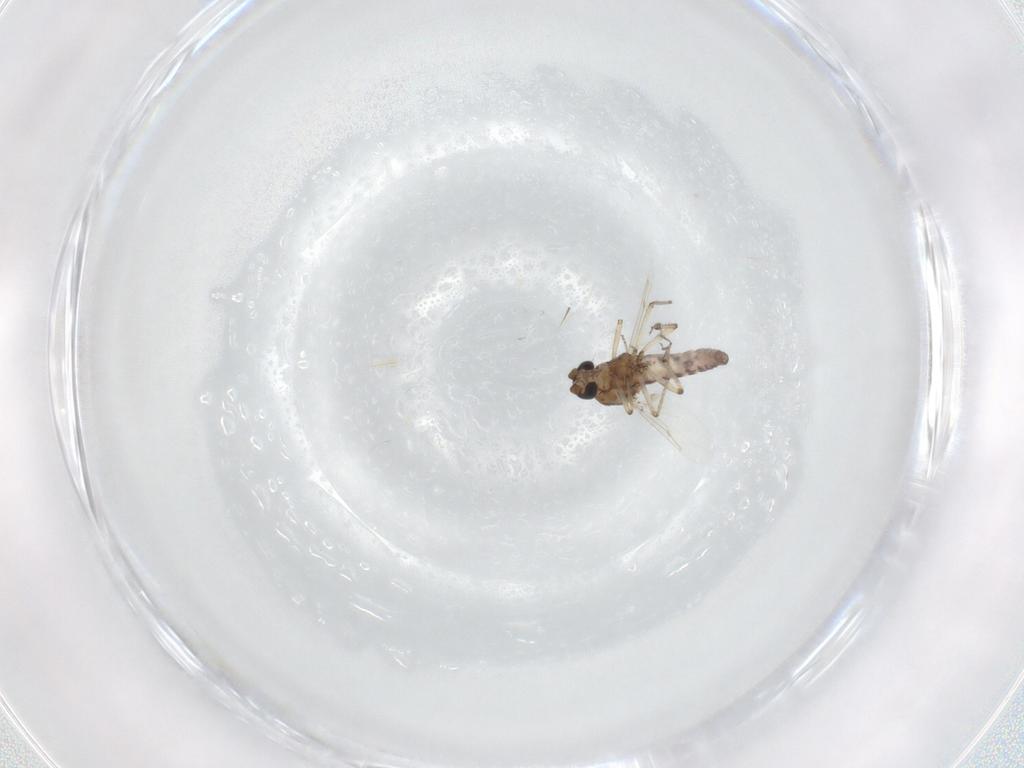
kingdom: Animalia
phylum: Arthropoda
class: Insecta
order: Diptera
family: Ceratopogonidae
